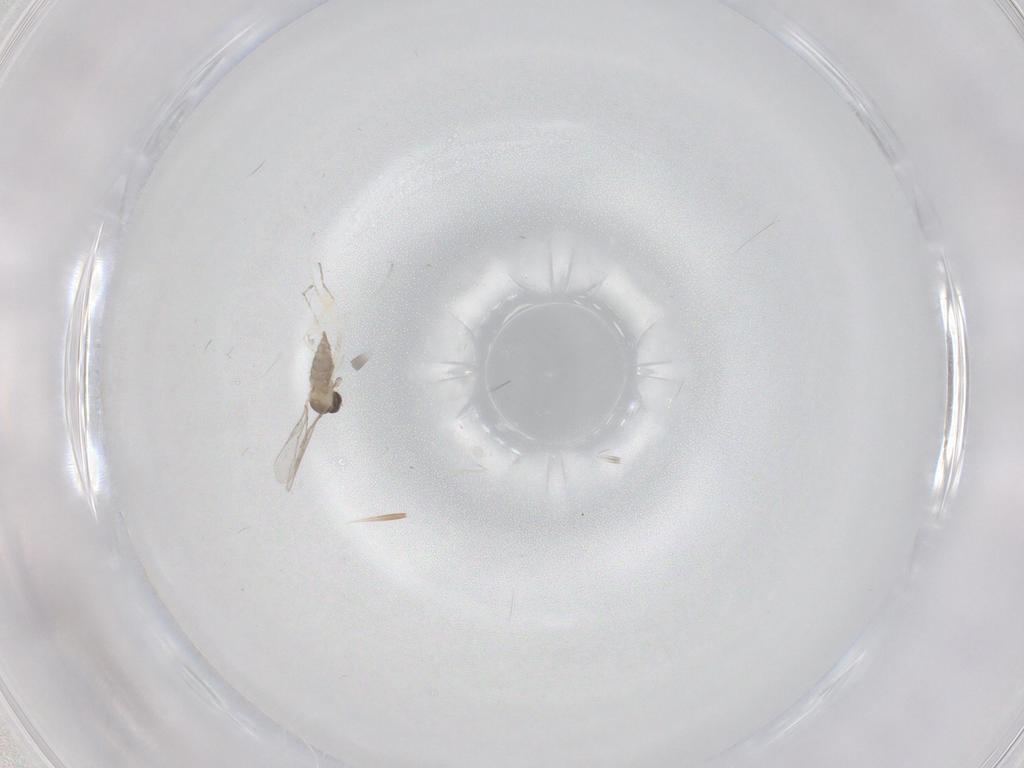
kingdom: Animalia
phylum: Arthropoda
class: Insecta
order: Diptera
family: Cecidomyiidae
